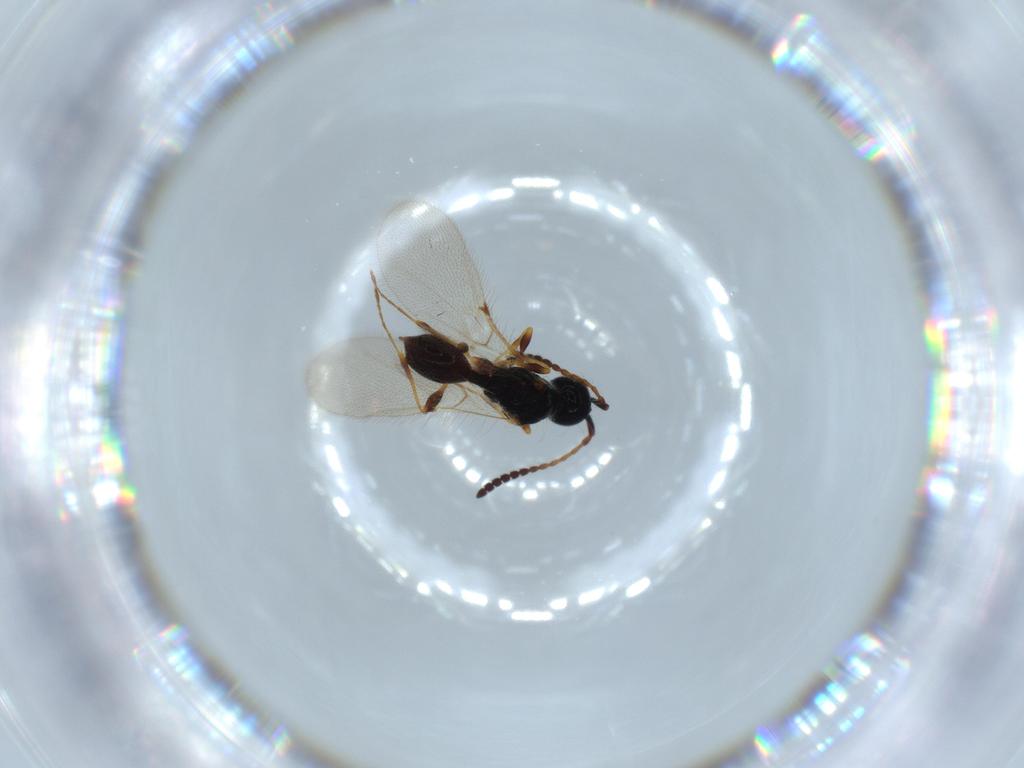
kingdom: Animalia
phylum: Arthropoda
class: Insecta
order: Hymenoptera
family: Diapriidae
